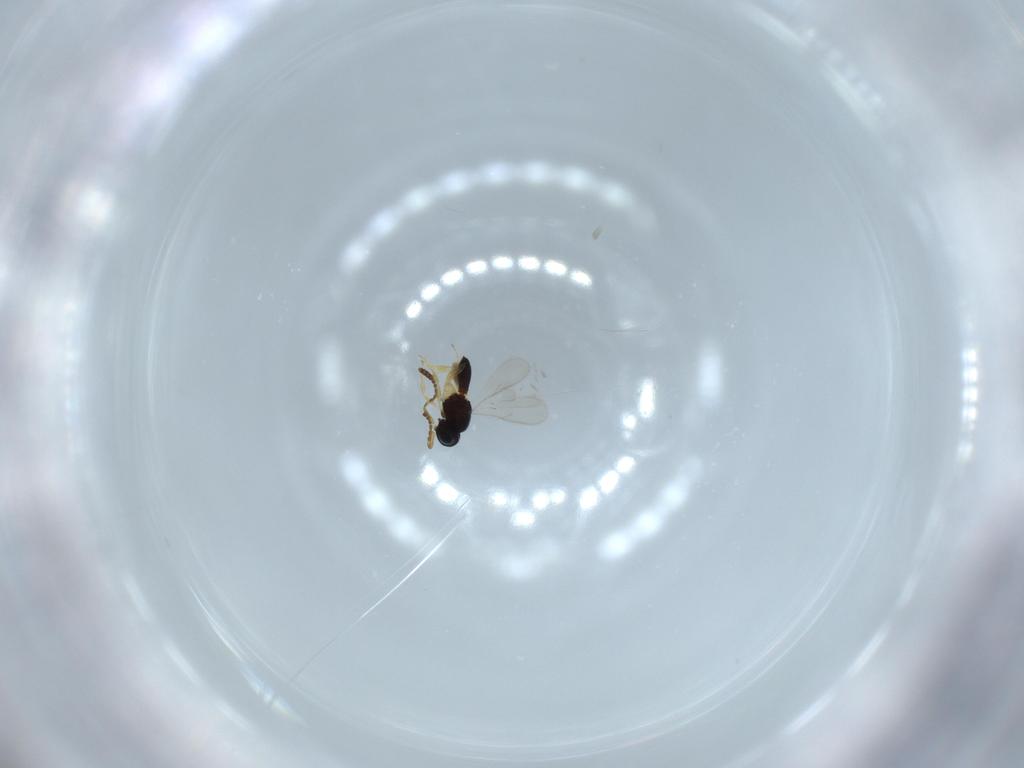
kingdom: Animalia
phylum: Arthropoda
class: Insecta
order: Hymenoptera
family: Scelionidae
